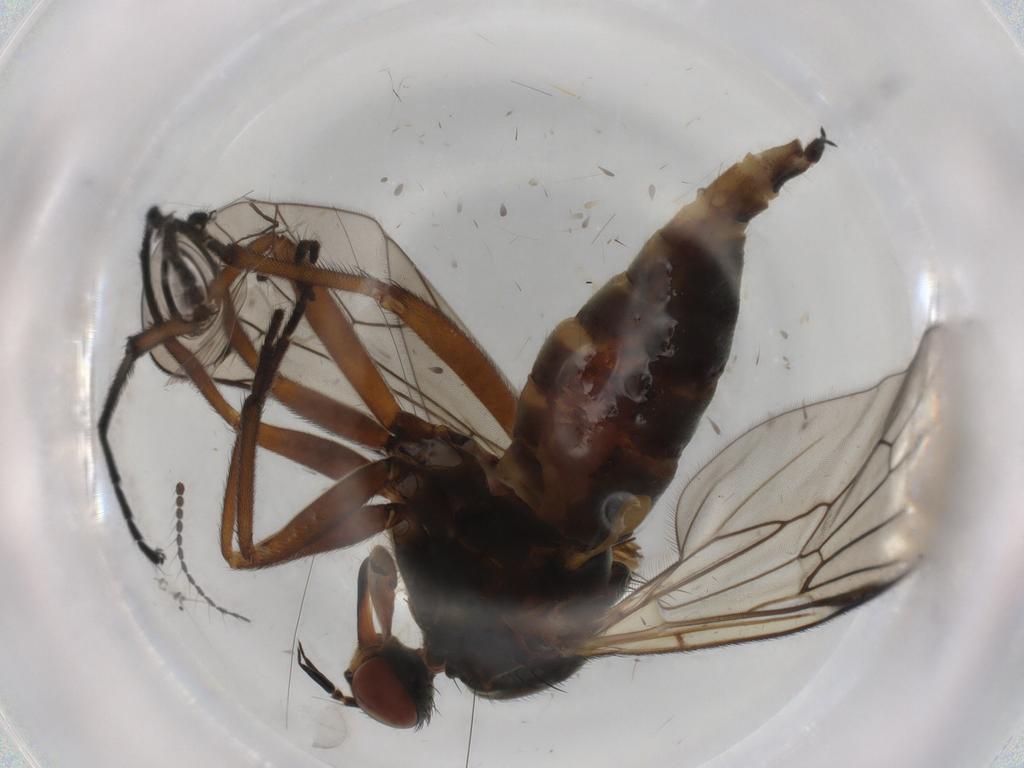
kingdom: Animalia
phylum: Arthropoda
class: Insecta
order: Diptera
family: Empididae
